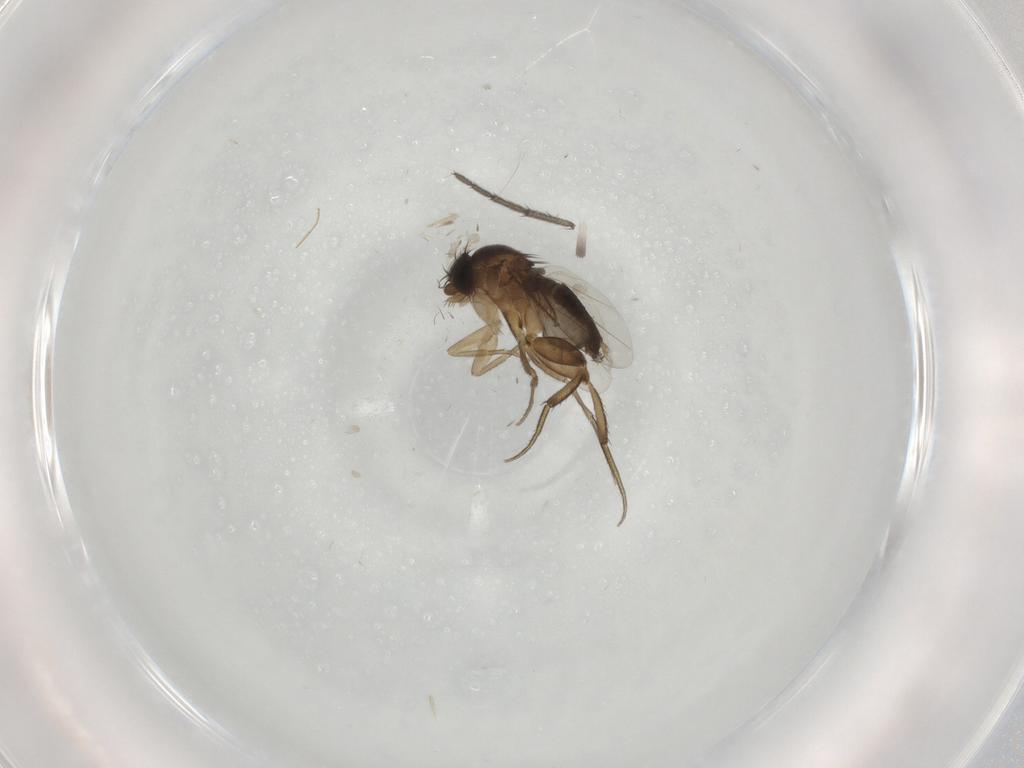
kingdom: Animalia
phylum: Arthropoda
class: Insecta
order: Diptera
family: Phoridae
